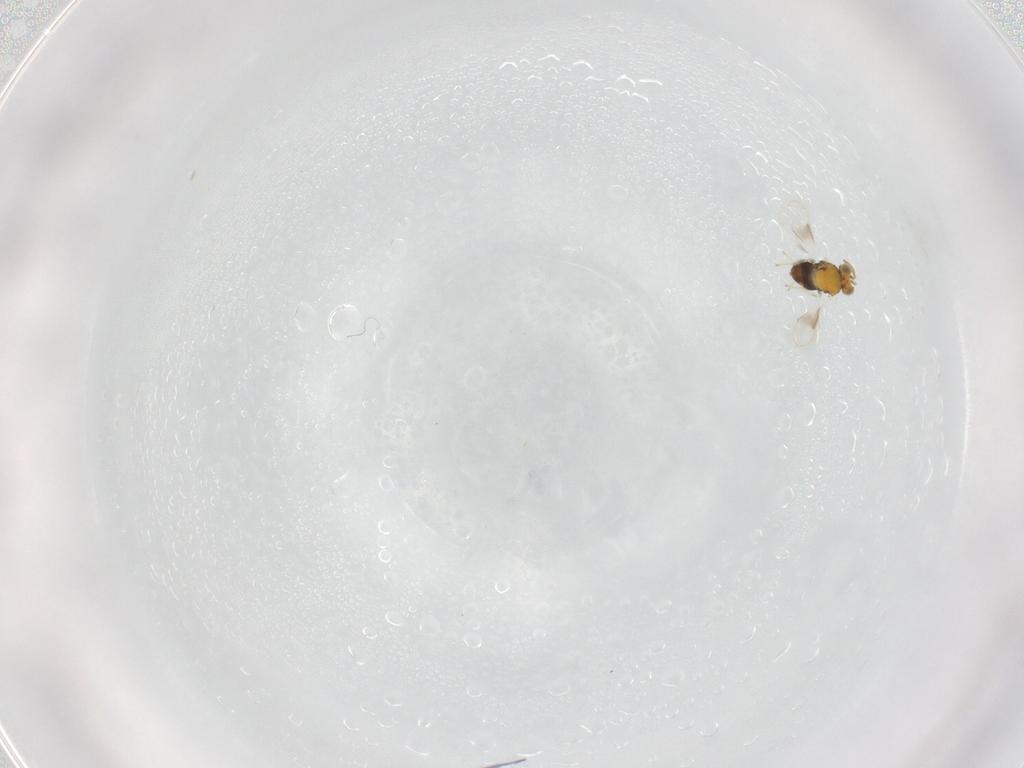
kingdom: Animalia
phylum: Arthropoda
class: Insecta
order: Hymenoptera
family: Aphelinidae
